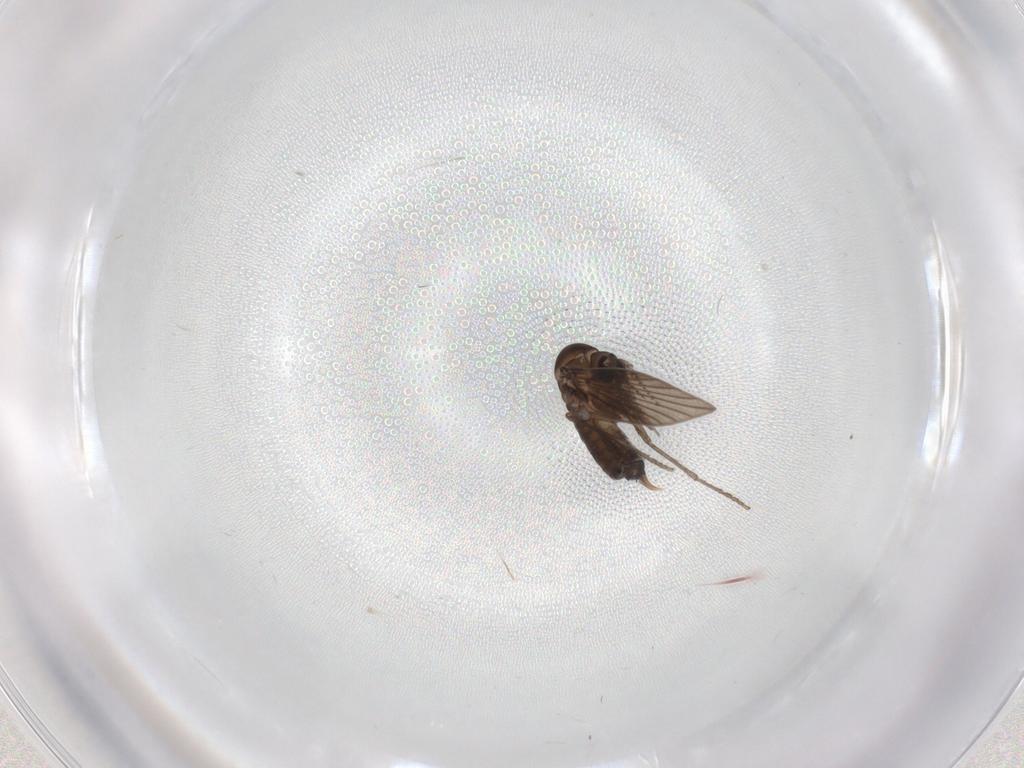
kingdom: Animalia
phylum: Arthropoda
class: Insecta
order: Diptera
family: Psychodidae
